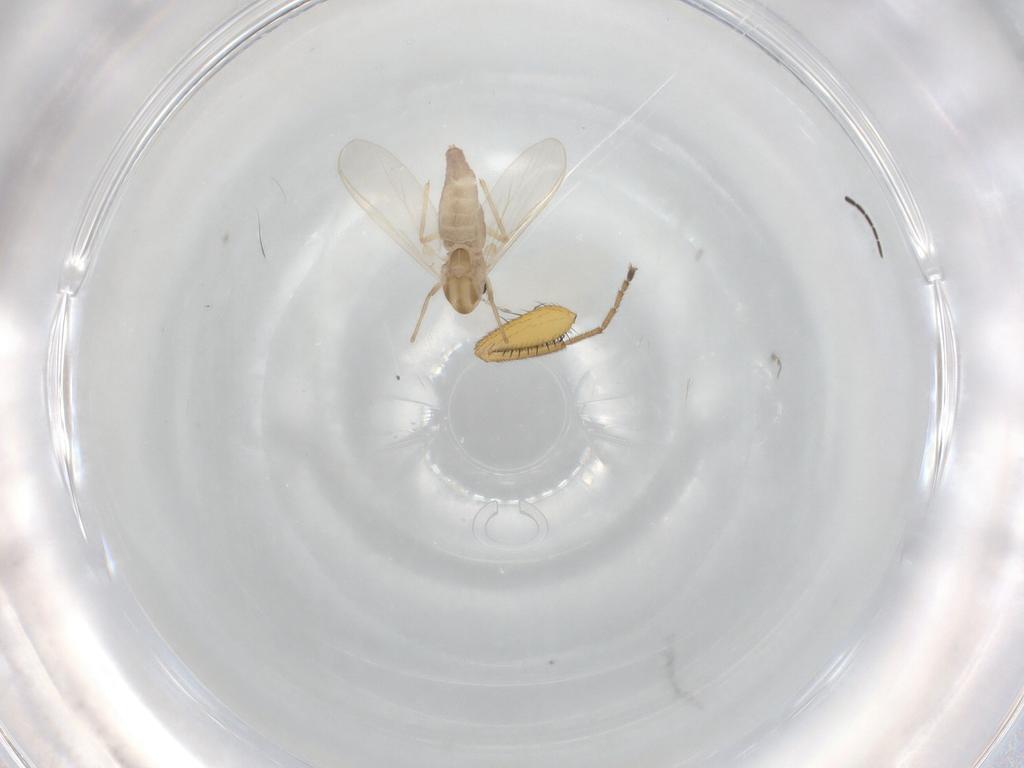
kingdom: Animalia
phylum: Arthropoda
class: Insecta
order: Diptera
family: Chironomidae
